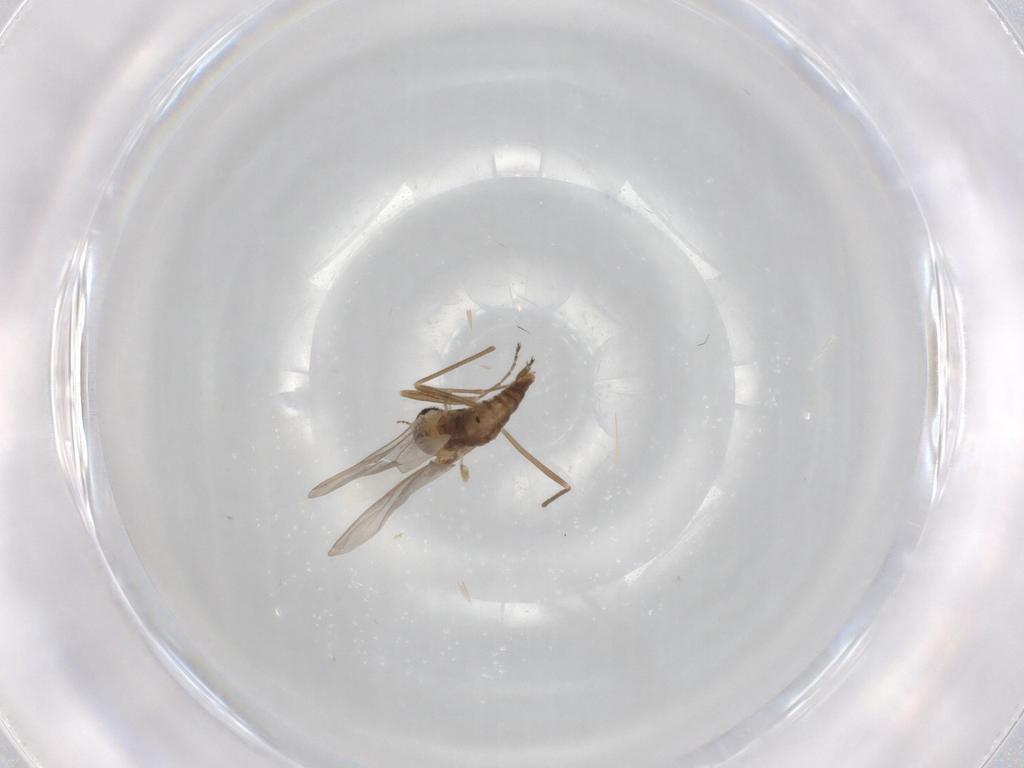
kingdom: Animalia
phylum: Arthropoda
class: Insecta
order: Diptera
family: Cecidomyiidae
